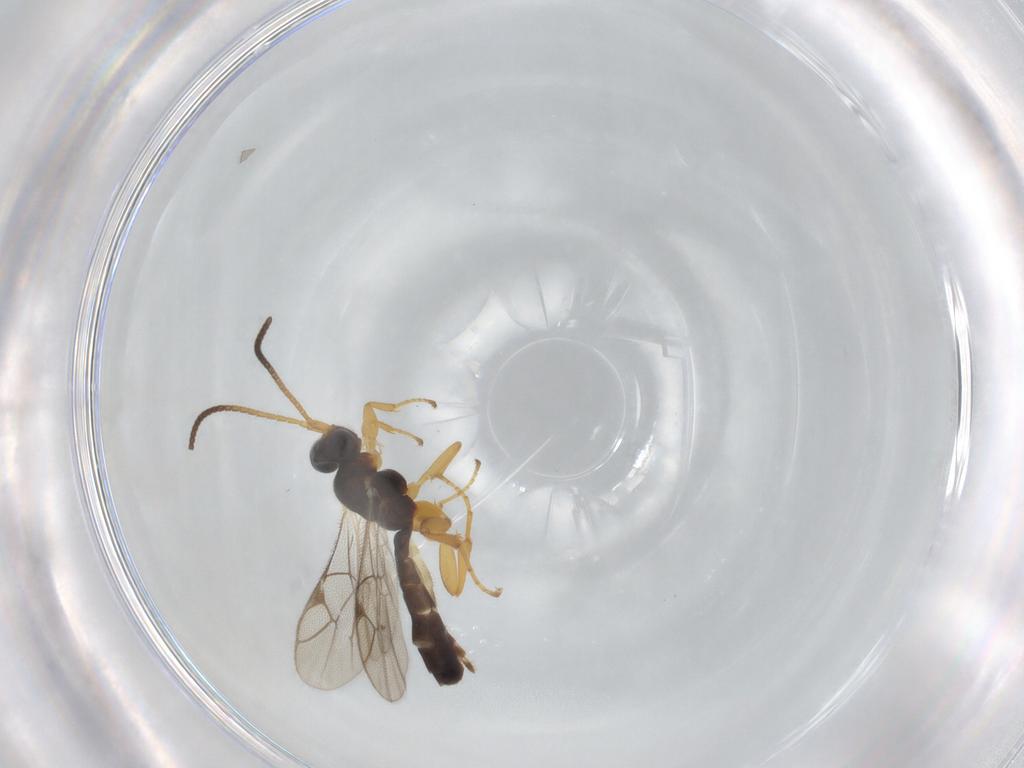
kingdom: Animalia
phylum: Arthropoda
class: Insecta
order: Hymenoptera
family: Ichneumonidae
